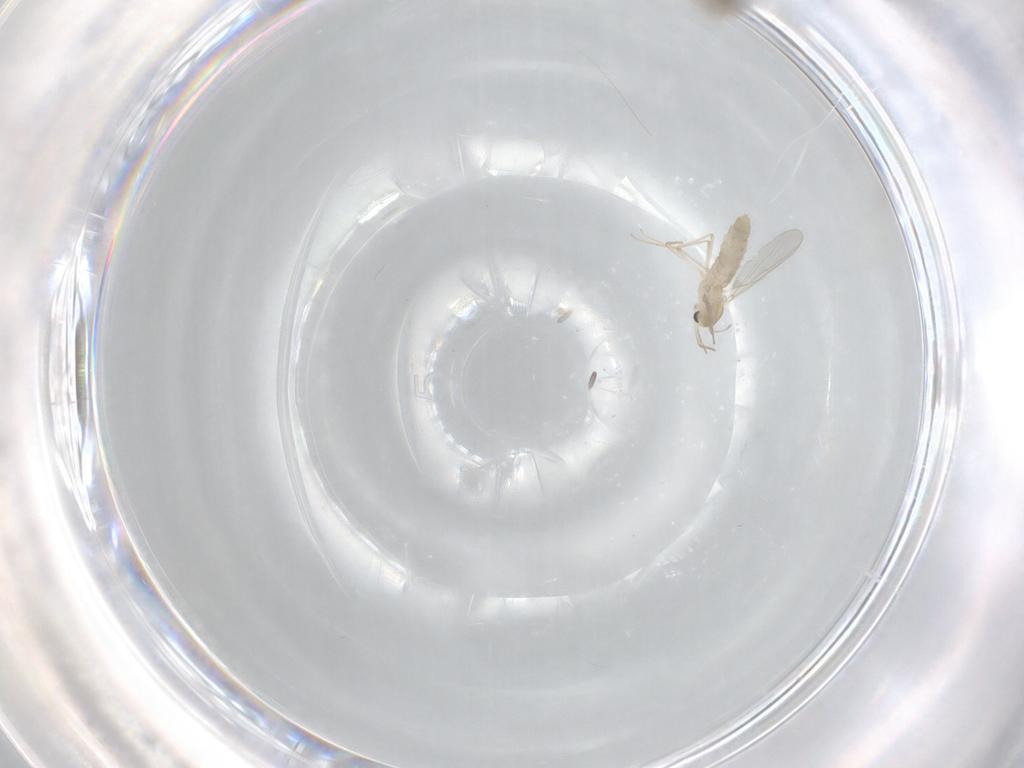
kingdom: Animalia
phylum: Arthropoda
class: Insecta
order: Diptera
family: Chironomidae
